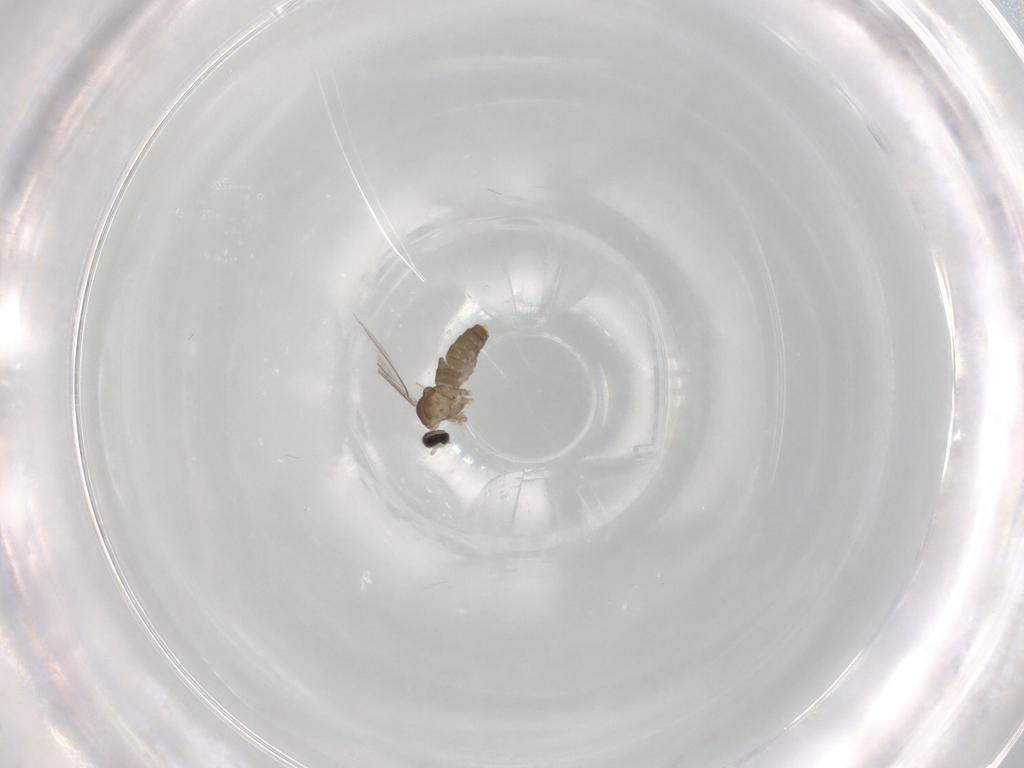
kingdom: Animalia
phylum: Arthropoda
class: Insecta
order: Diptera
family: Cecidomyiidae
